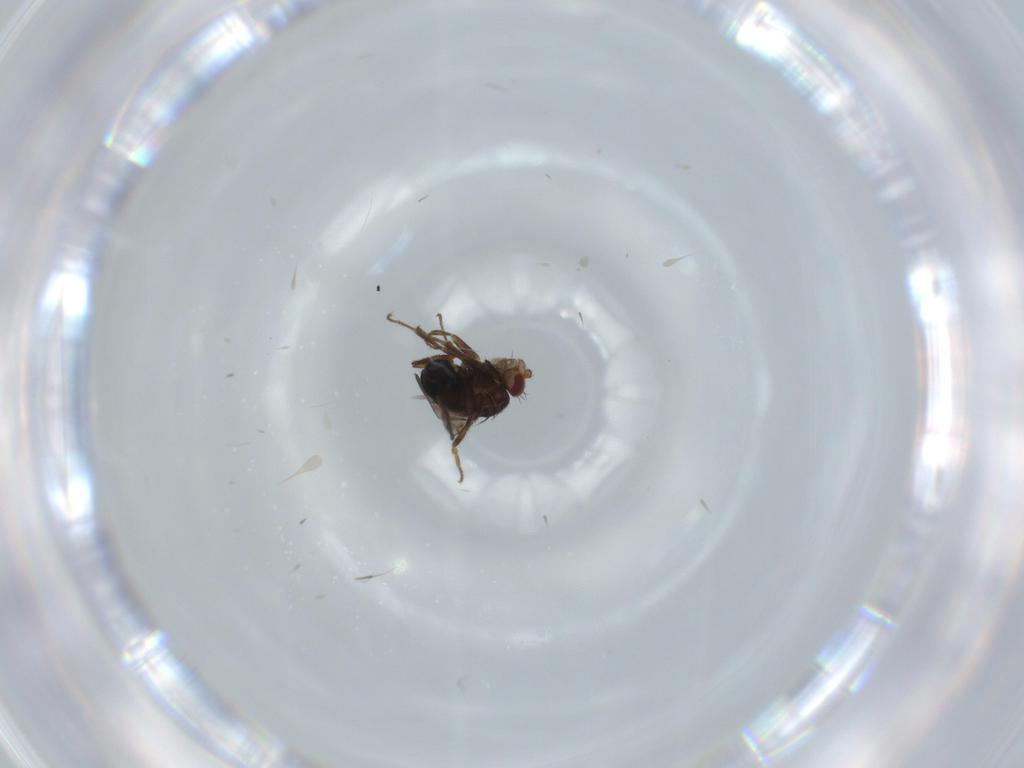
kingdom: Animalia
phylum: Arthropoda
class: Insecta
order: Diptera
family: Sphaeroceridae
